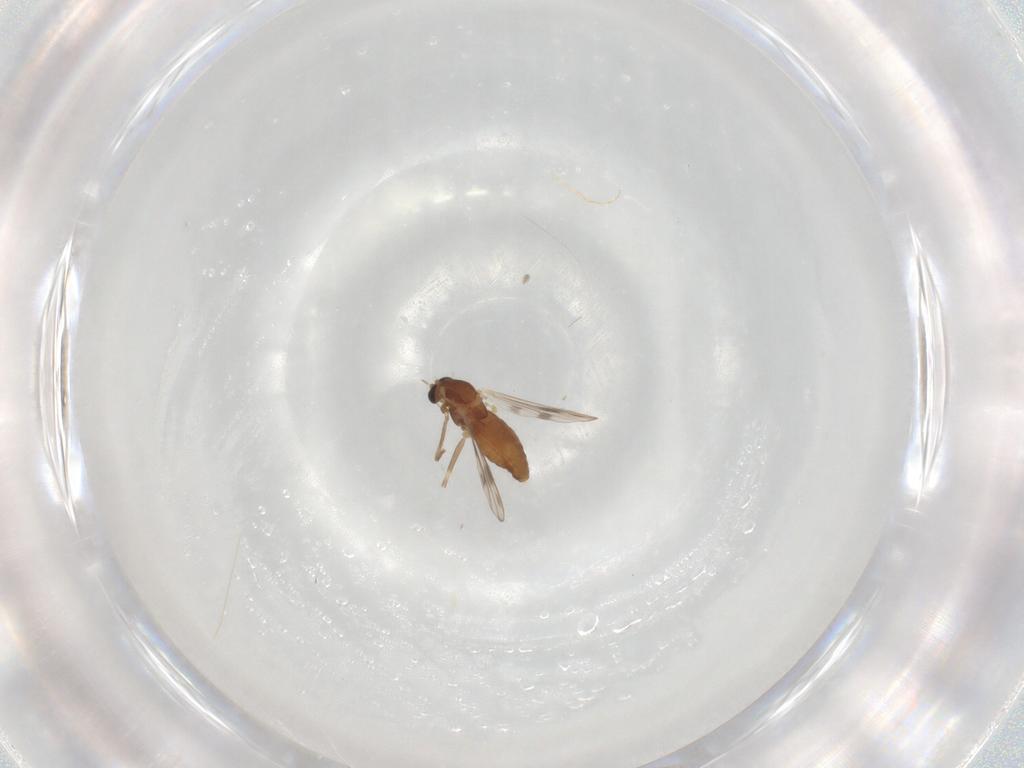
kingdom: Animalia
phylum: Arthropoda
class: Insecta
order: Diptera
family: Chironomidae
